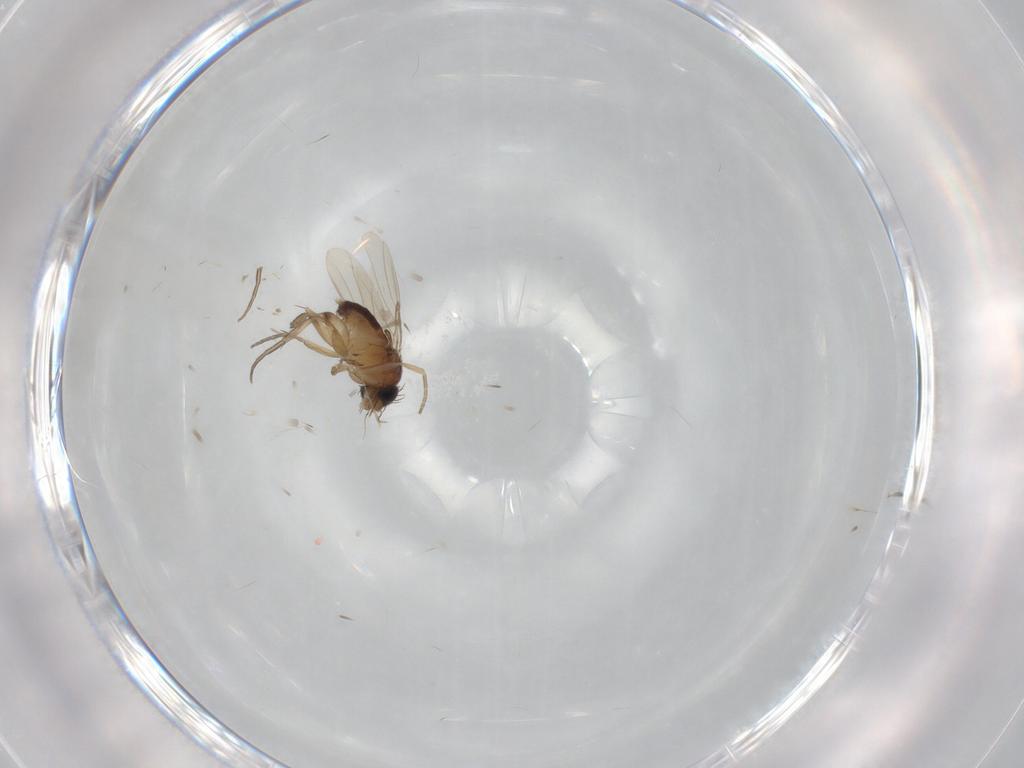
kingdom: Animalia
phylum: Arthropoda
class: Insecta
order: Diptera
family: Phoridae
